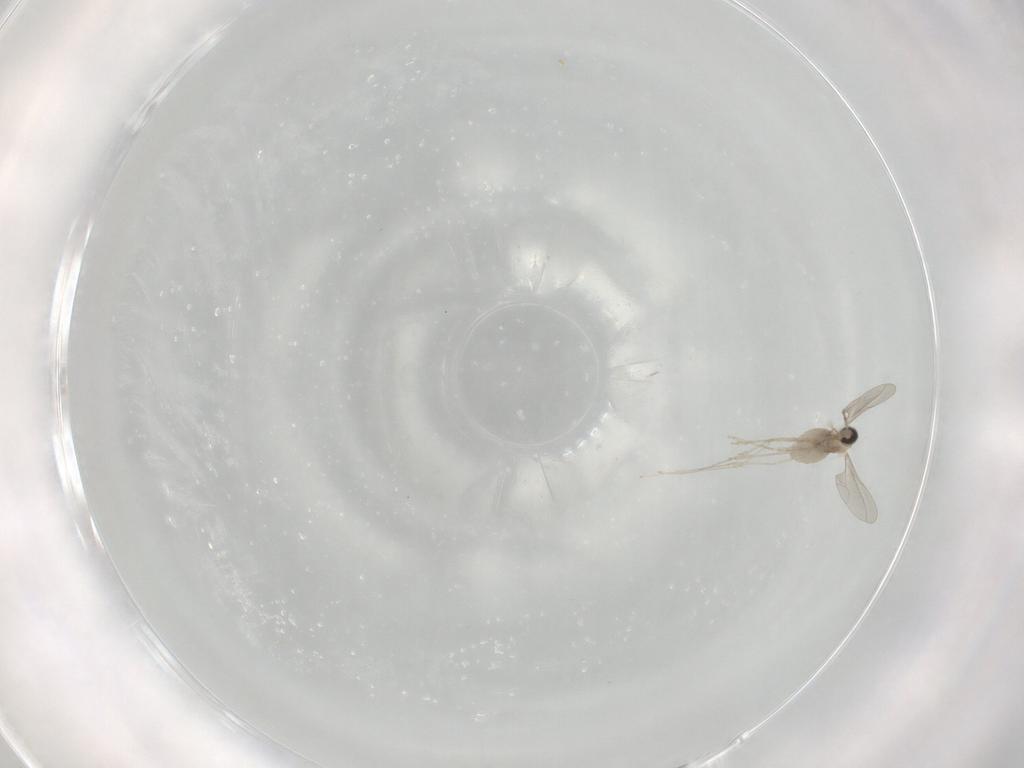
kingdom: Animalia
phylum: Arthropoda
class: Insecta
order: Diptera
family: Cecidomyiidae
